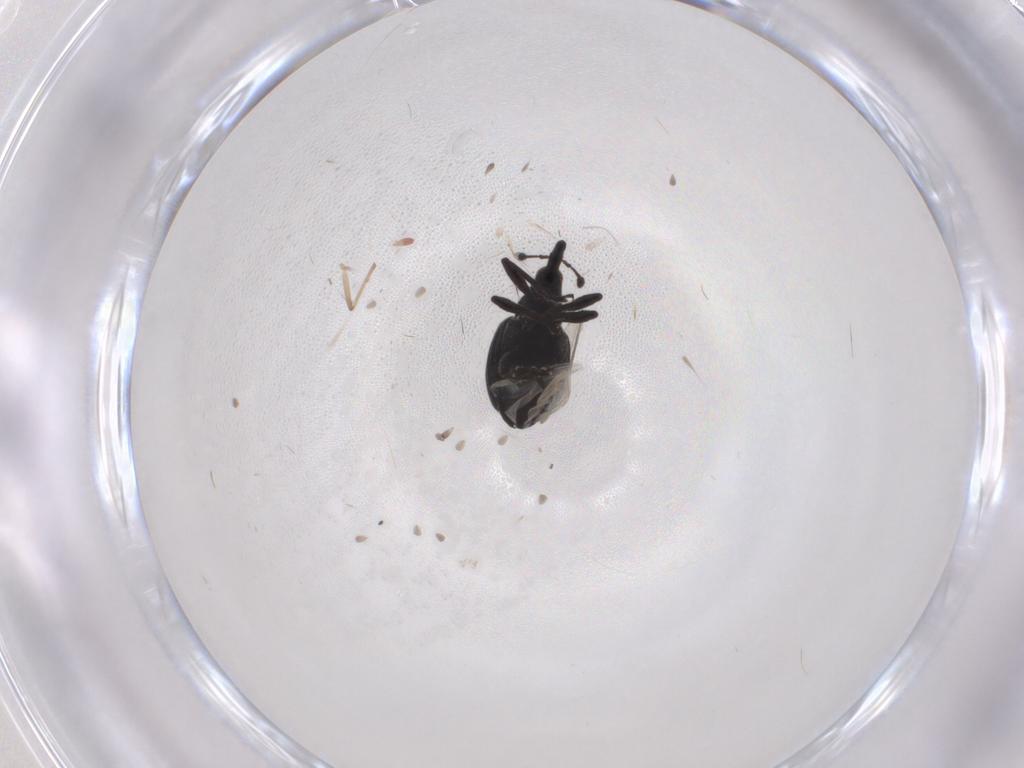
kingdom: Animalia
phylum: Arthropoda
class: Insecta
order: Coleoptera
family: Brentidae
